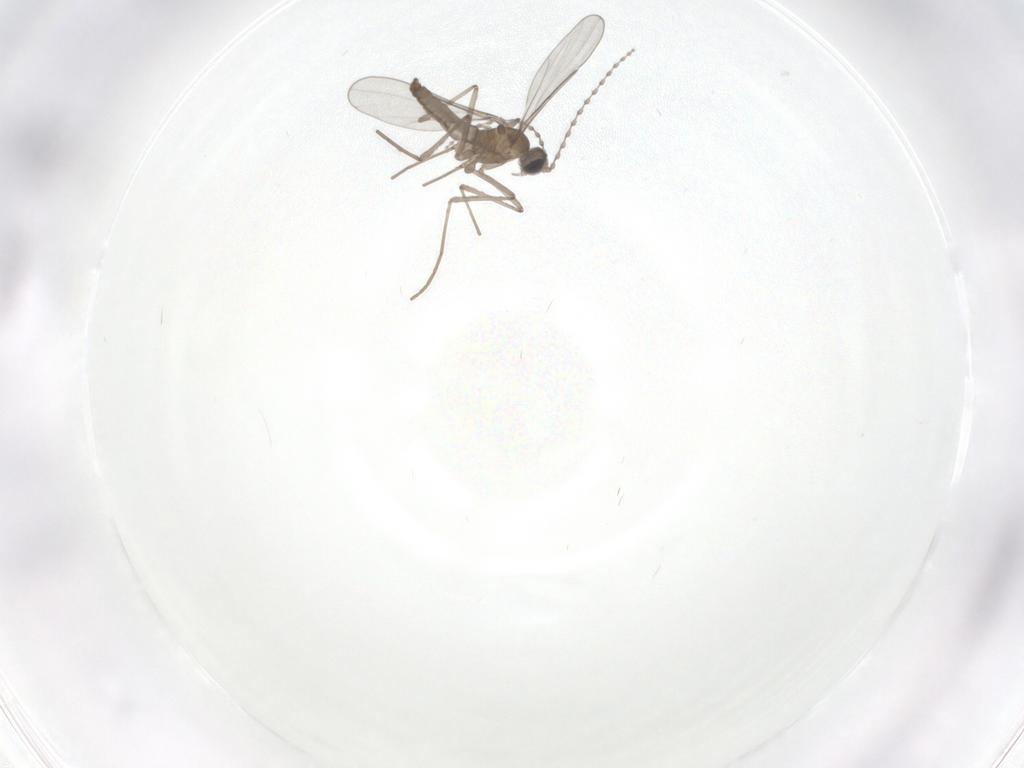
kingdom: Animalia
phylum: Arthropoda
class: Insecta
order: Diptera
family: Cecidomyiidae
